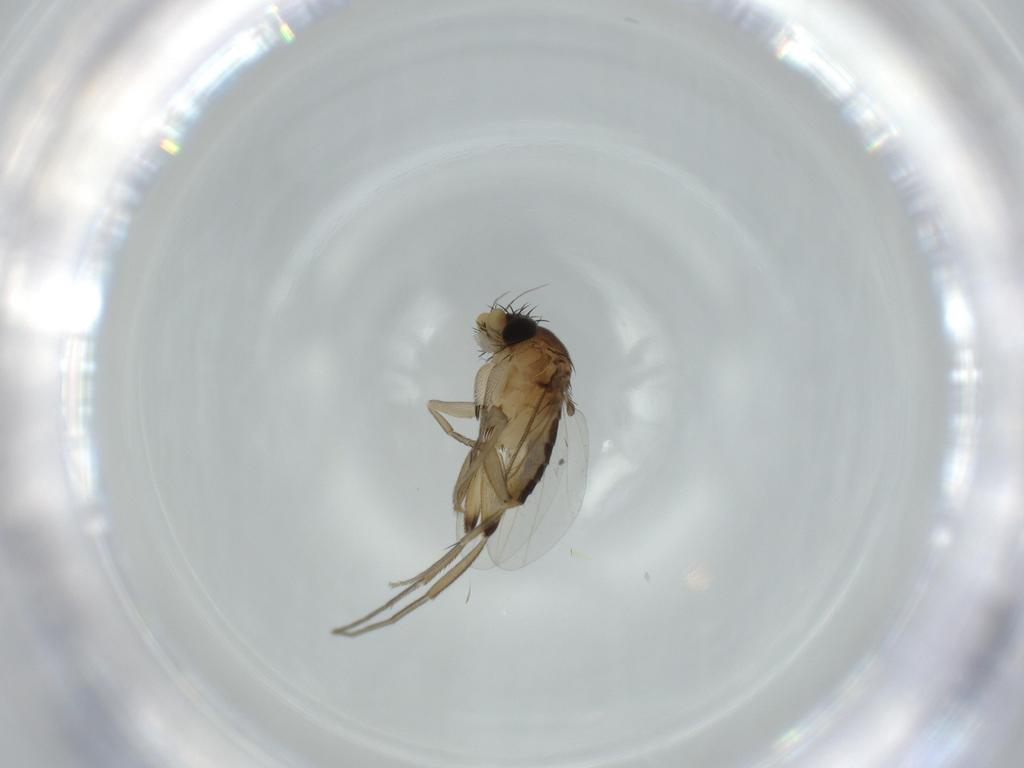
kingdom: Animalia
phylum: Arthropoda
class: Insecta
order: Diptera
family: Phoridae
